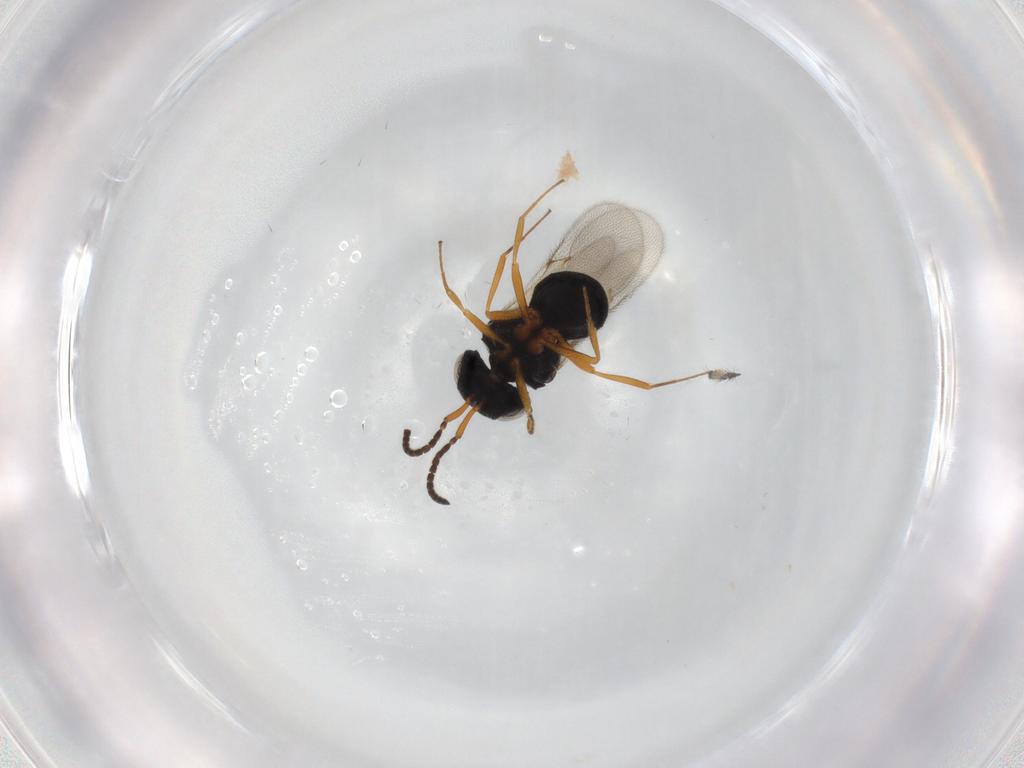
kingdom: Animalia
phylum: Arthropoda
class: Insecta
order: Hymenoptera
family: Scelionidae
